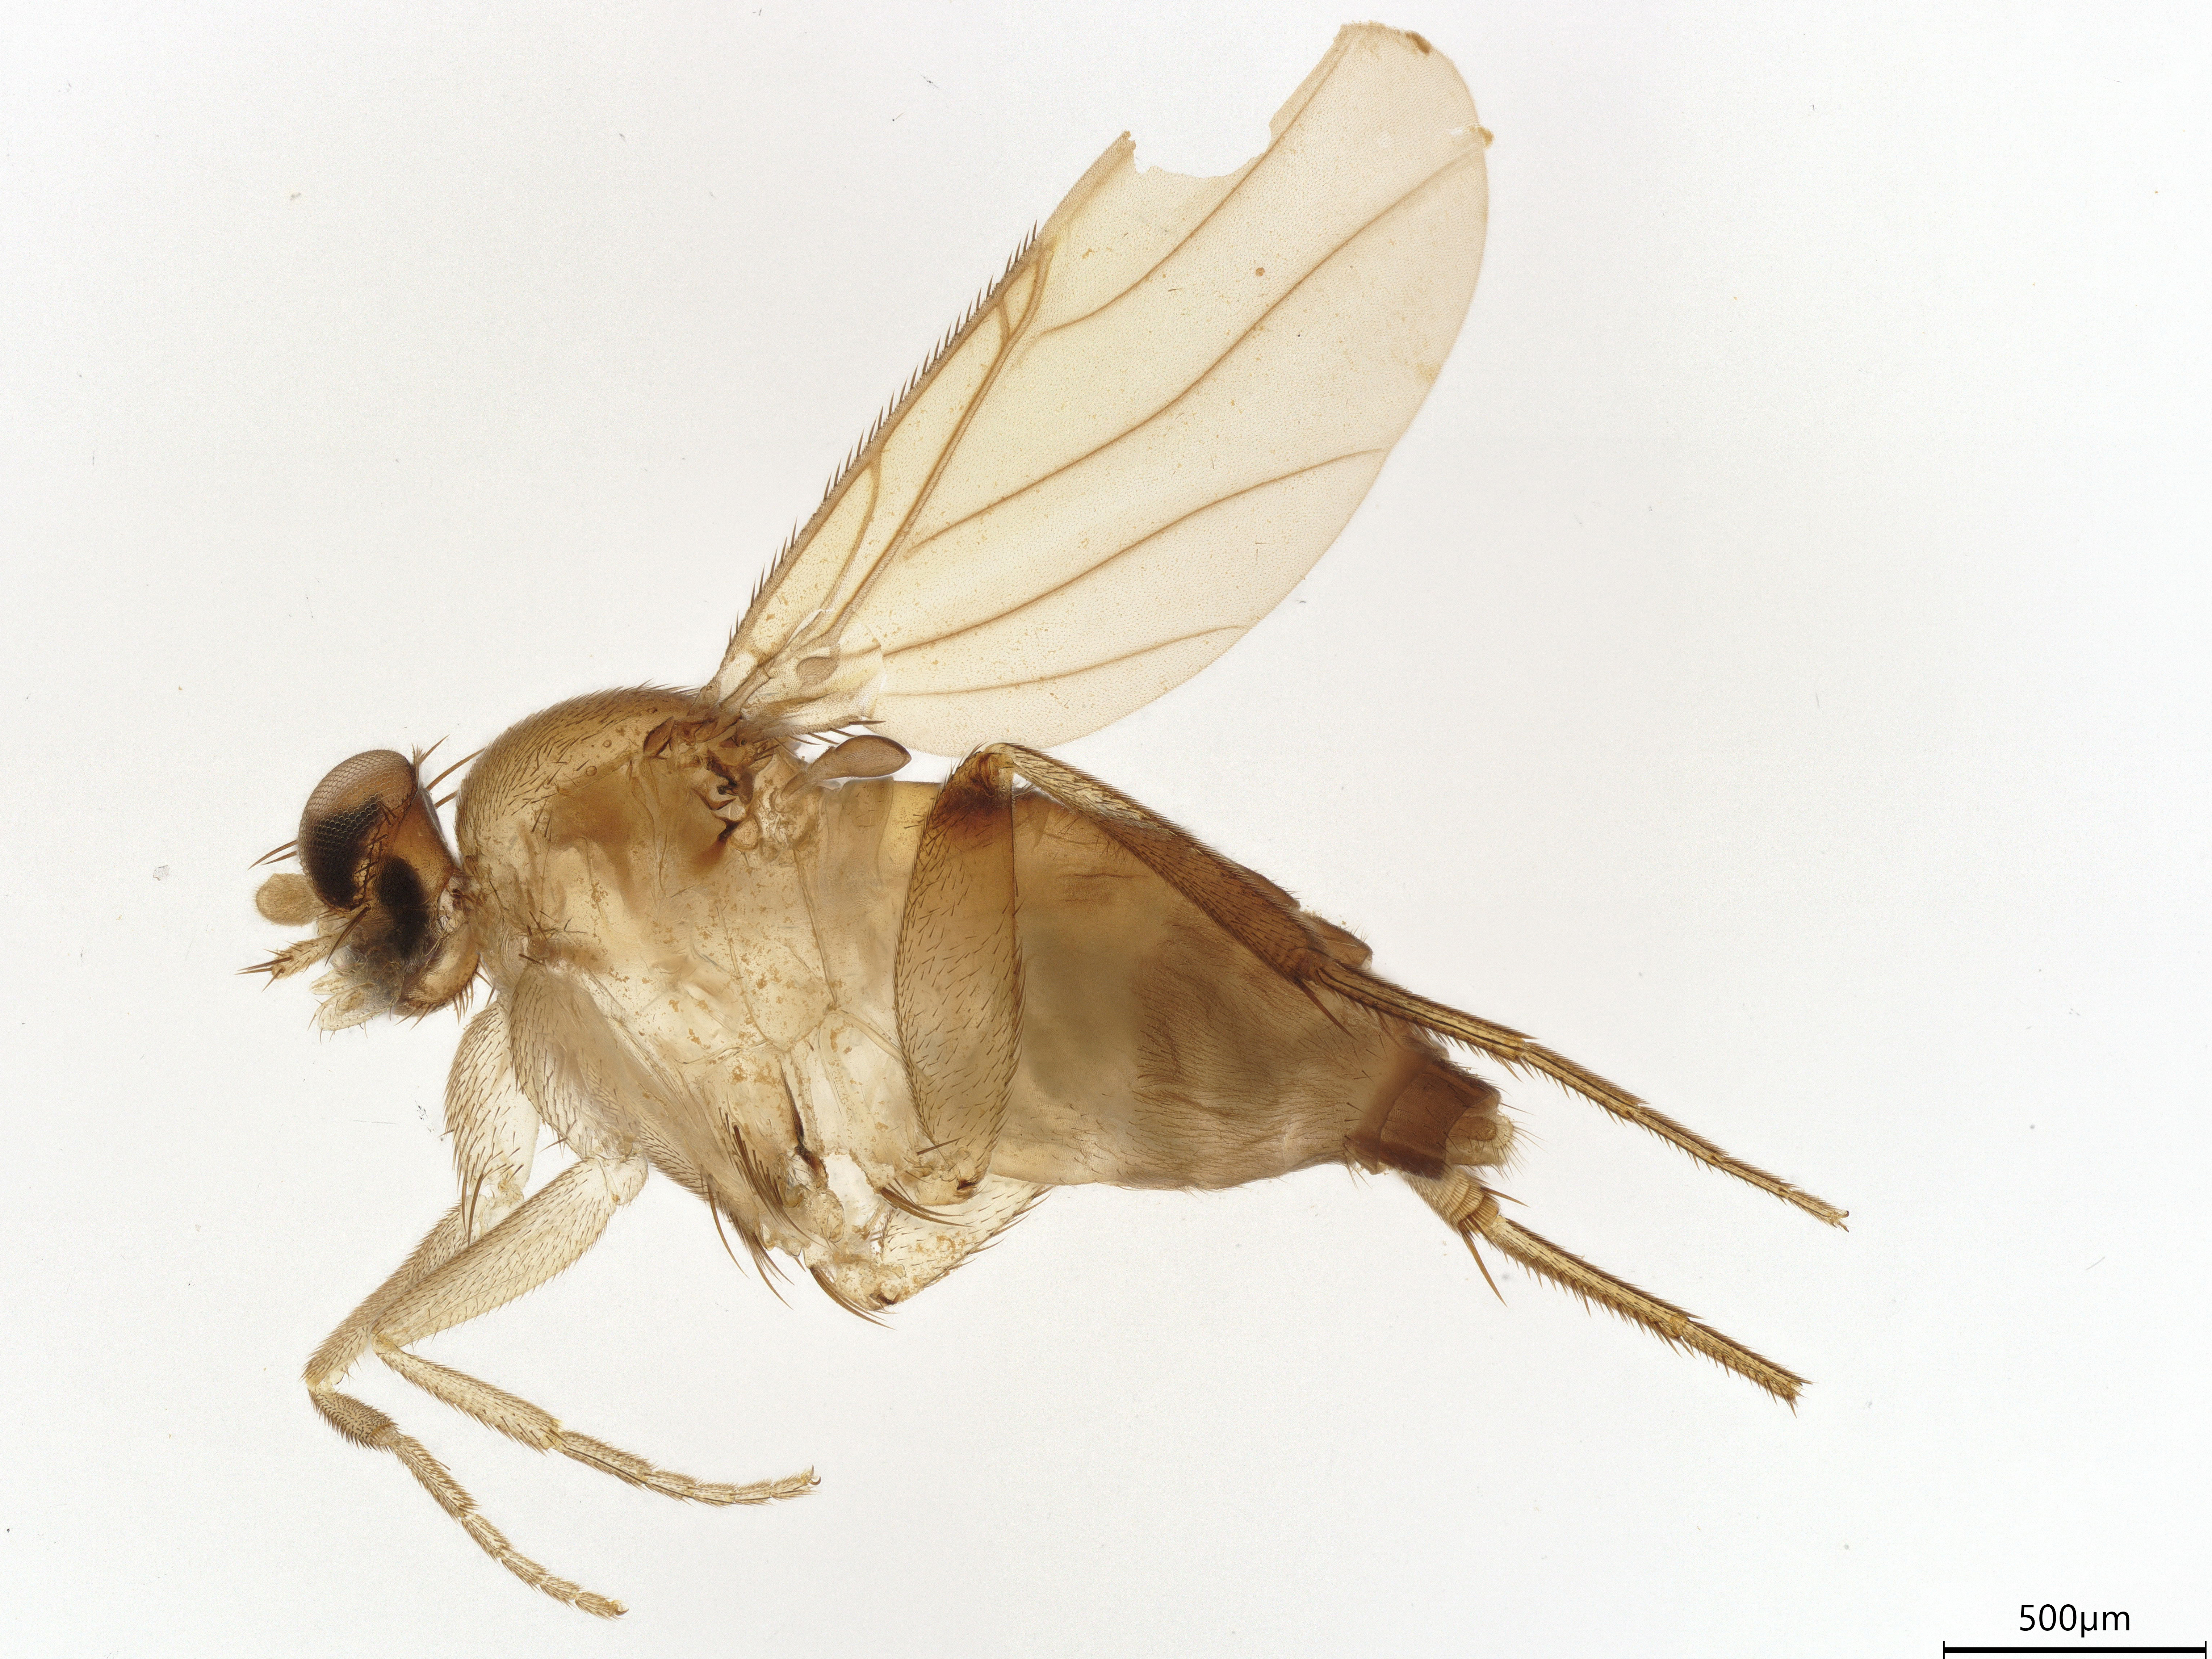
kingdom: Animalia
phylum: Arthropoda
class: Insecta
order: Diptera
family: Phoridae
